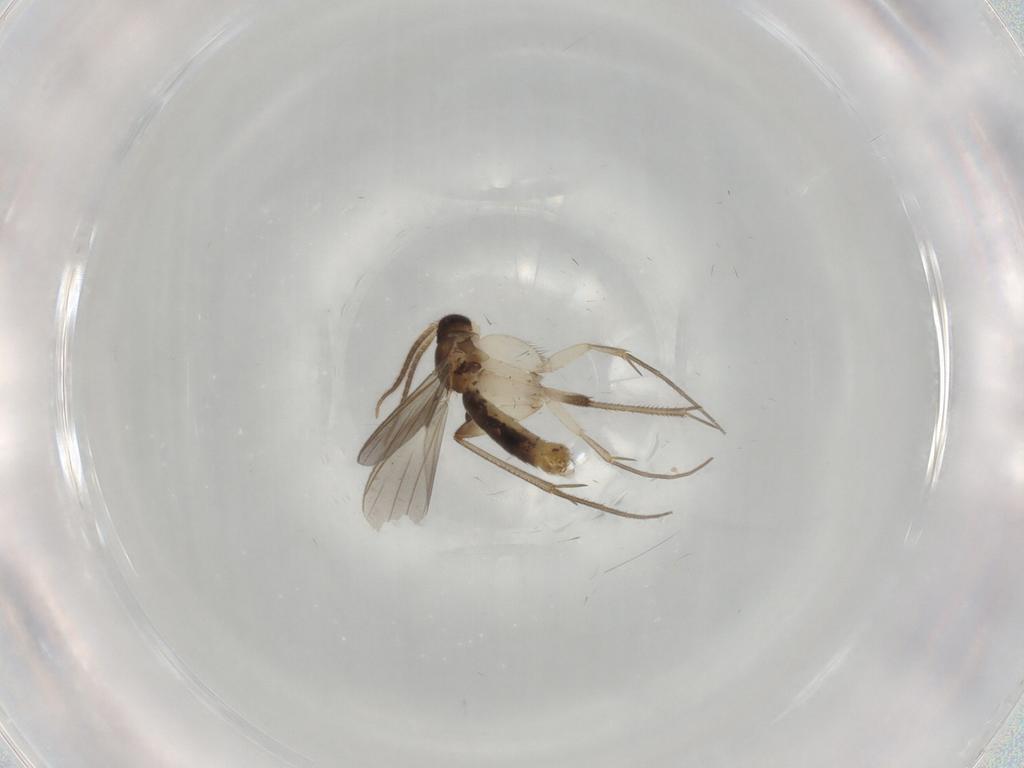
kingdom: Animalia
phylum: Arthropoda
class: Insecta
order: Diptera
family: Mycetophilidae
